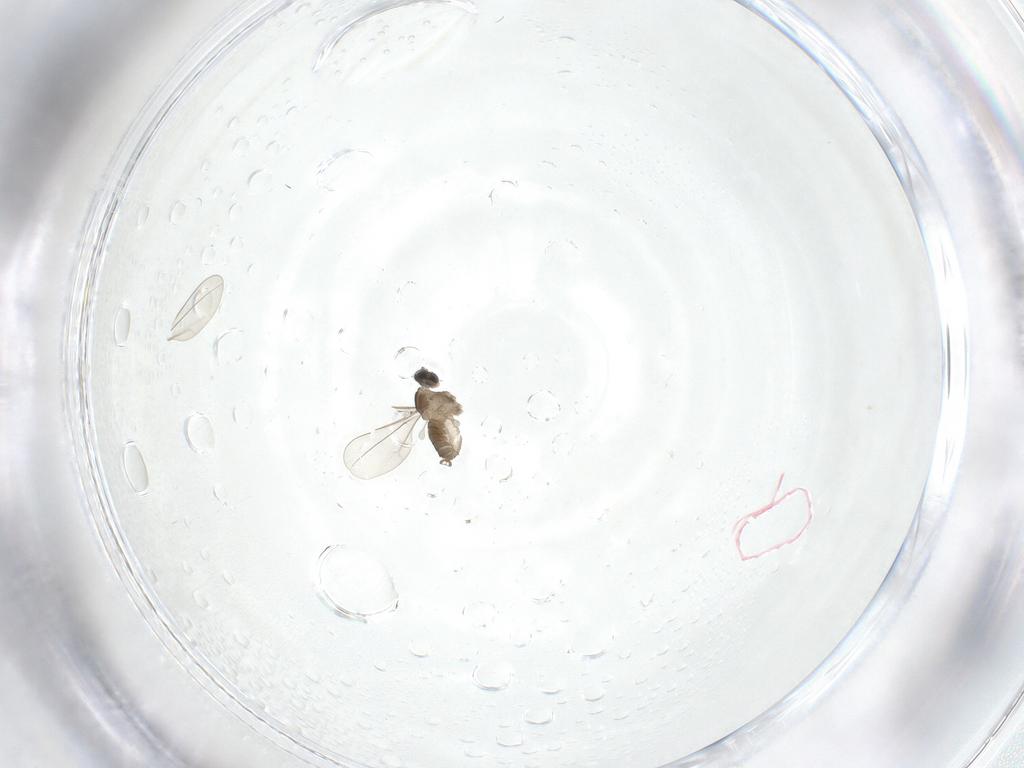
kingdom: Animalia
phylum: Arthropoda
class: Insecta
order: Diptera
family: Cecidomyiidae
